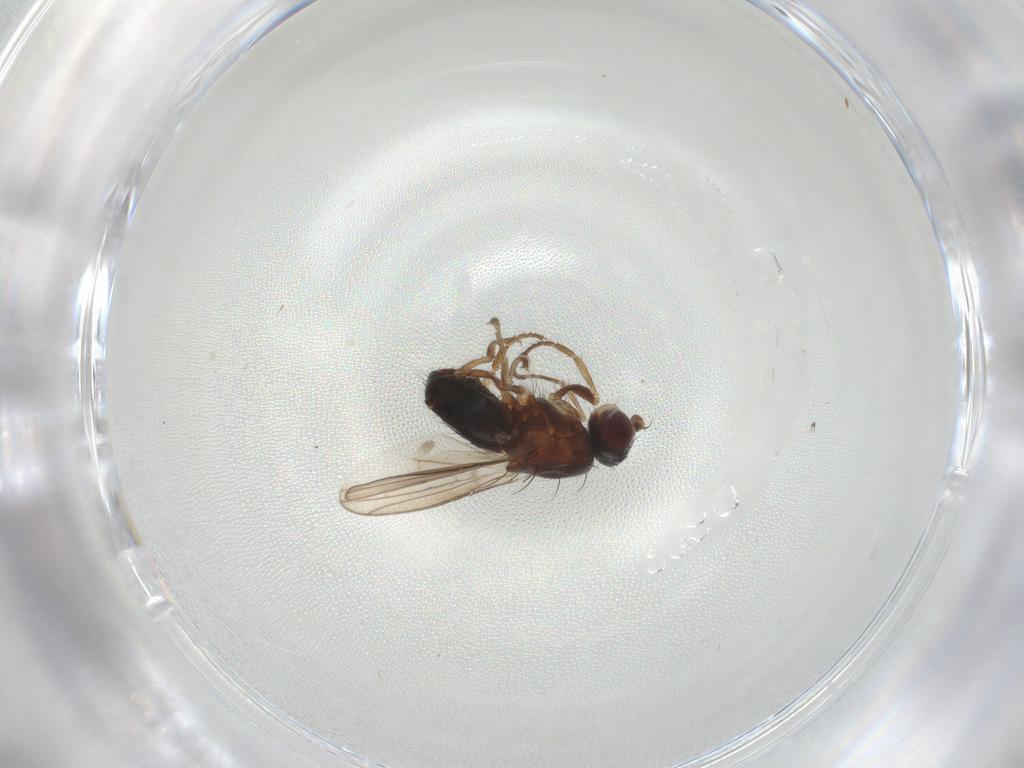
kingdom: Animalia
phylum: Arthropoda
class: Insecta
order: Diptera
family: Heleomyzidae
